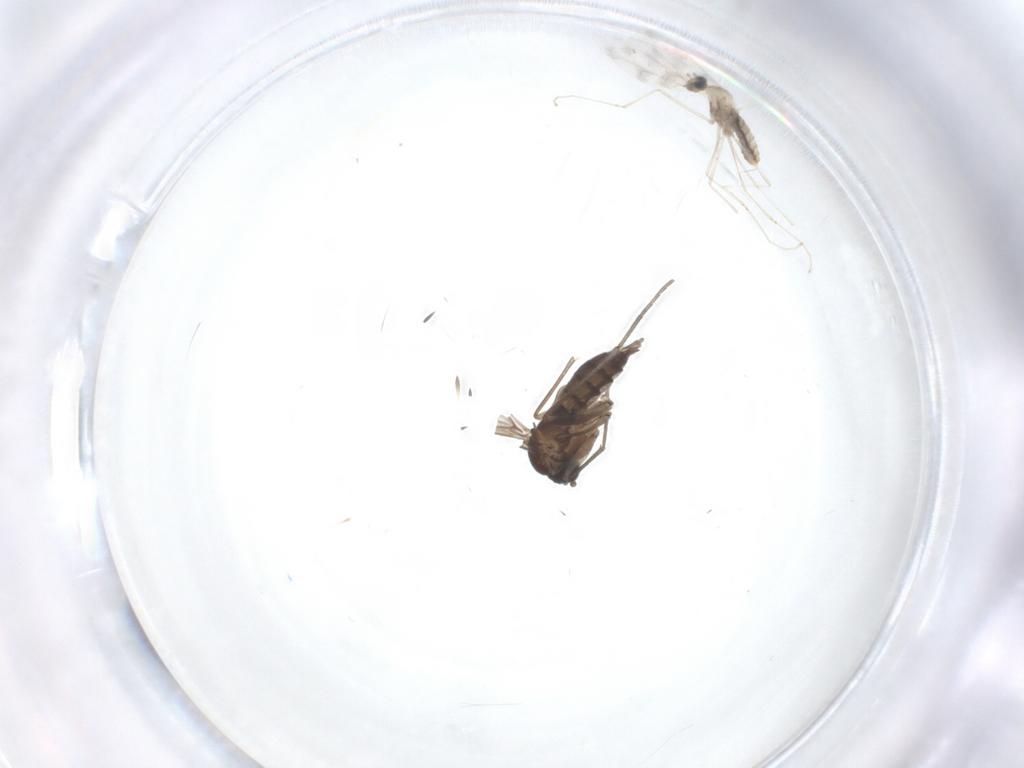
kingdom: Animalia
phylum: Arthropoda
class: Insecta
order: Diptera
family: Sciaridae
